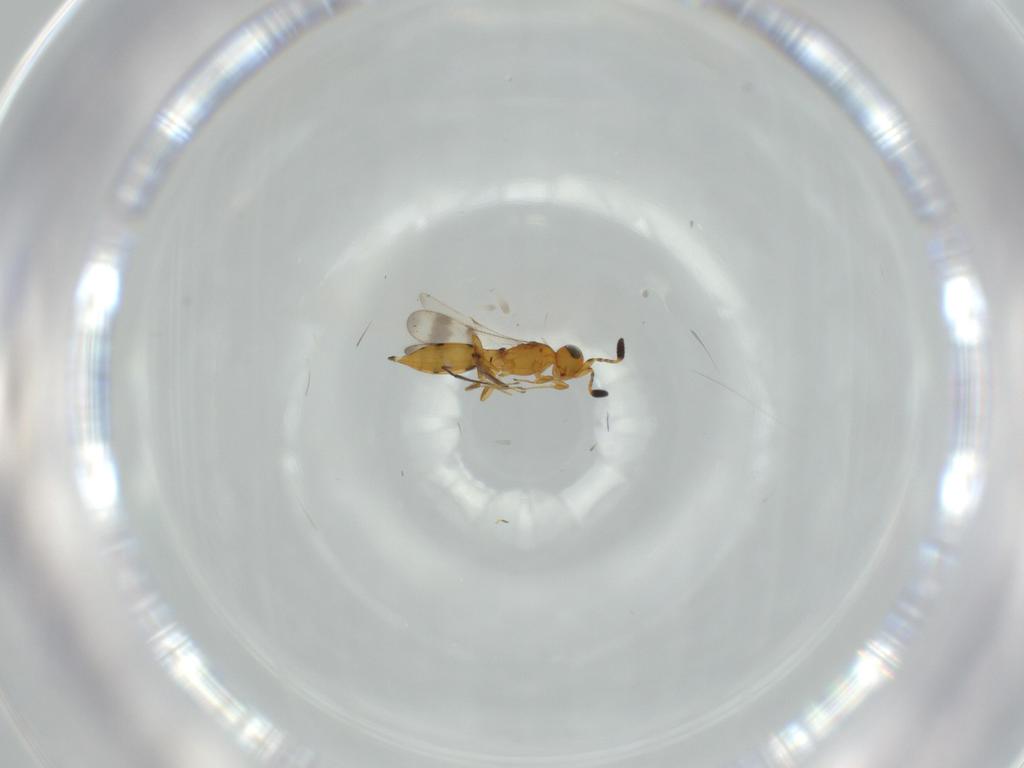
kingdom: Animalia
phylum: Arthropoda
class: Insecta
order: Hymenoptera
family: Scelionidae
